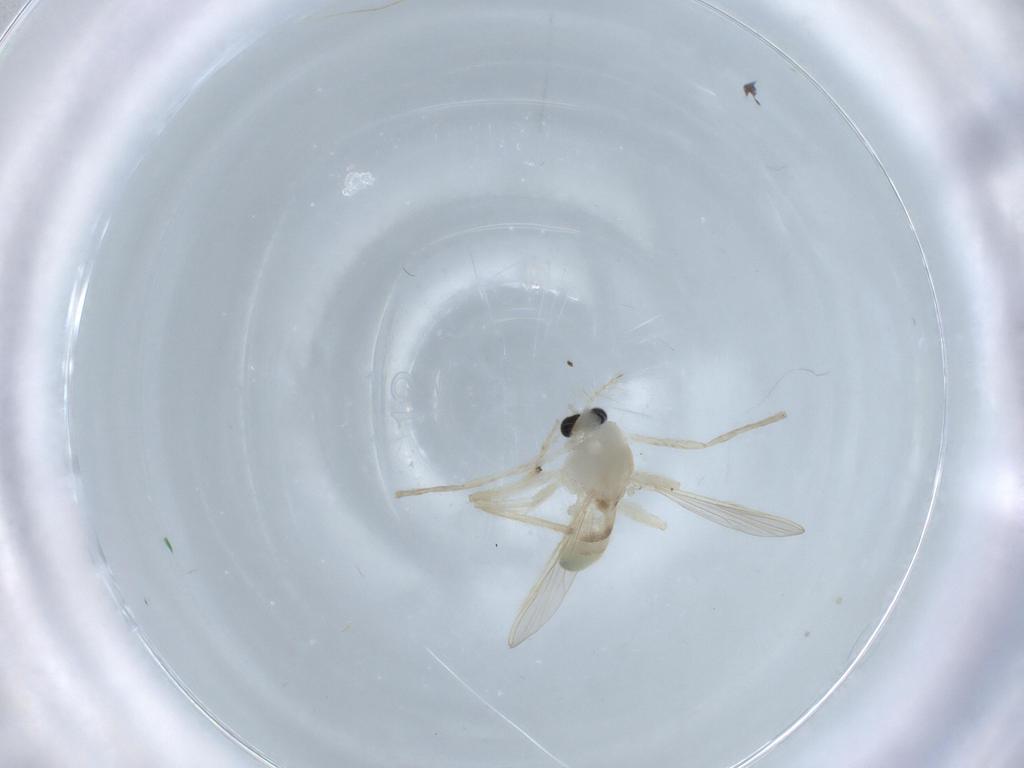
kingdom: Animalia
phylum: Arthropoda
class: Insecta
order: Diptera
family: Chironomidae
